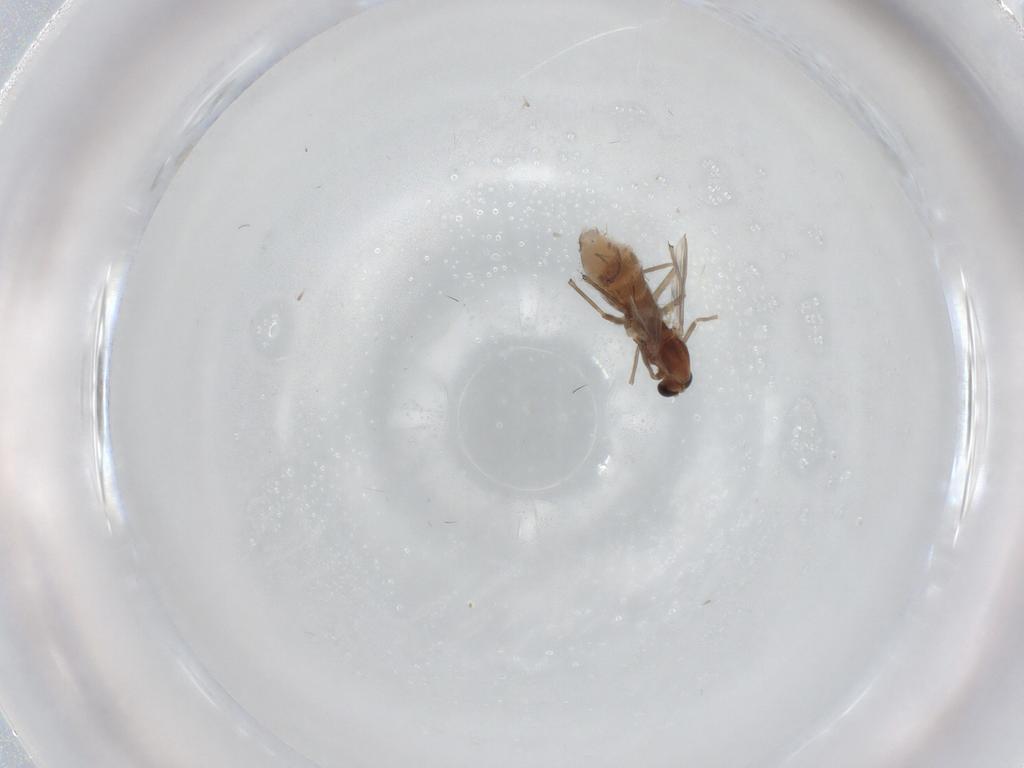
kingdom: Animalia
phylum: Arthropoda
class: Insecta
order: Diptera
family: Chironomidae
